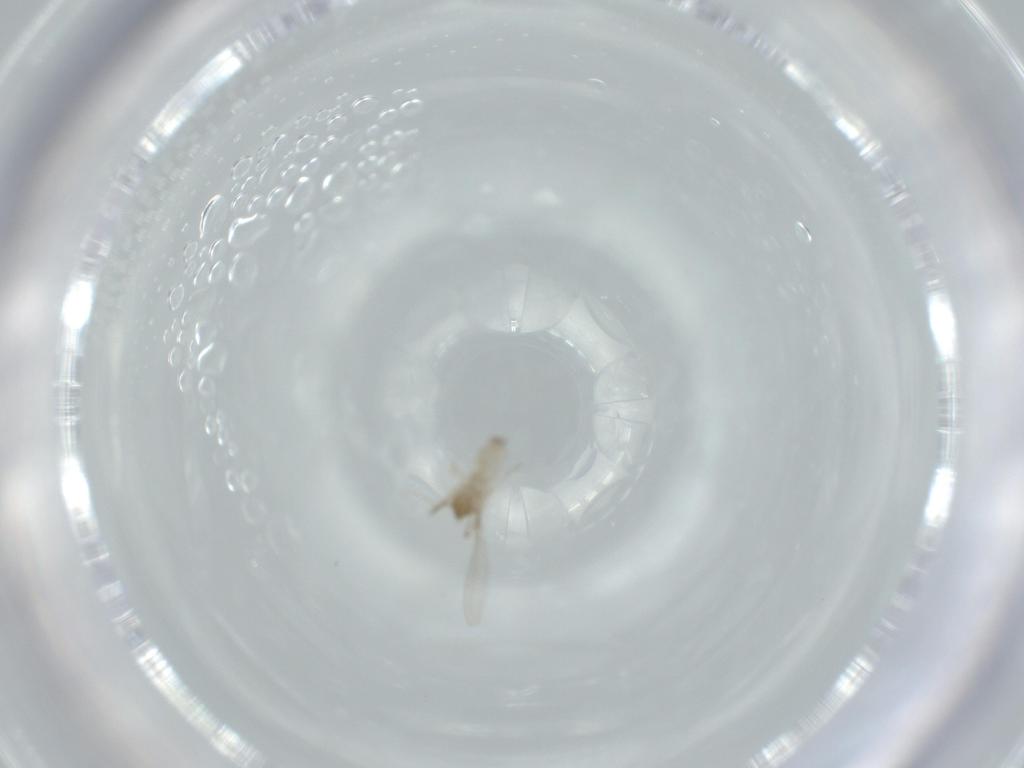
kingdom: Animalia
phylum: Arthropoda
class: Insecta
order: Diptera
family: Cecidomyiidae
